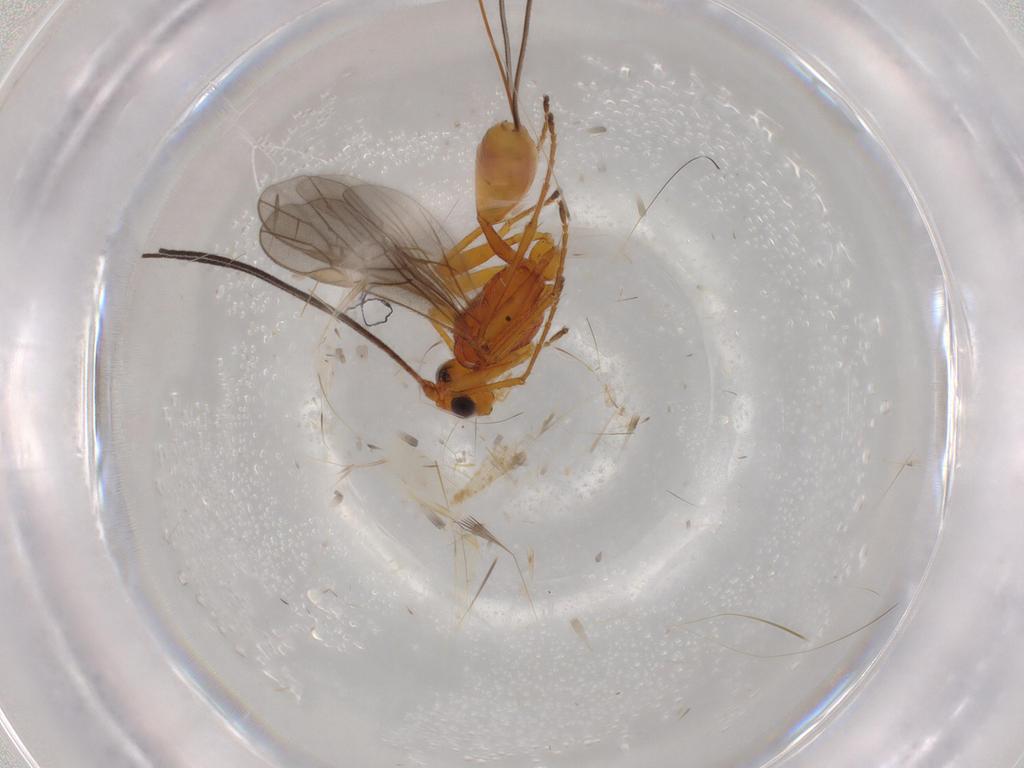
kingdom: Animalia
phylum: Arthropoda
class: Insecta
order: Hymenoptera
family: Braconidae
